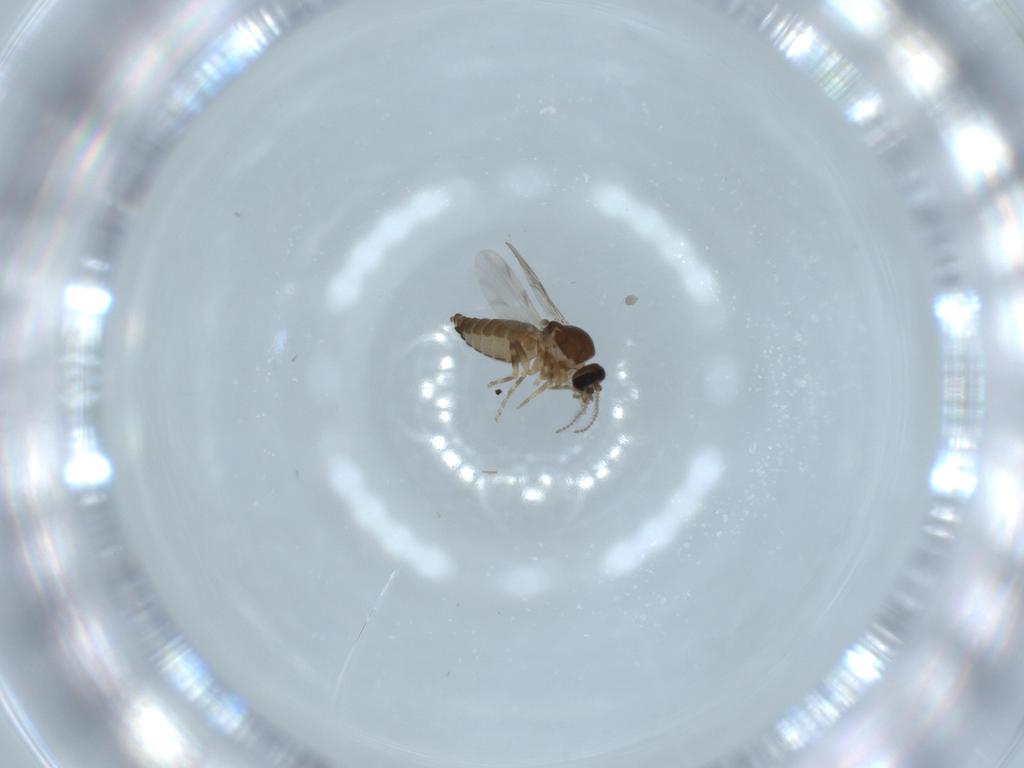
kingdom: Animalia
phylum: Arthropoda
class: Insecta
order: Diptera
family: Ceratopogonidae
